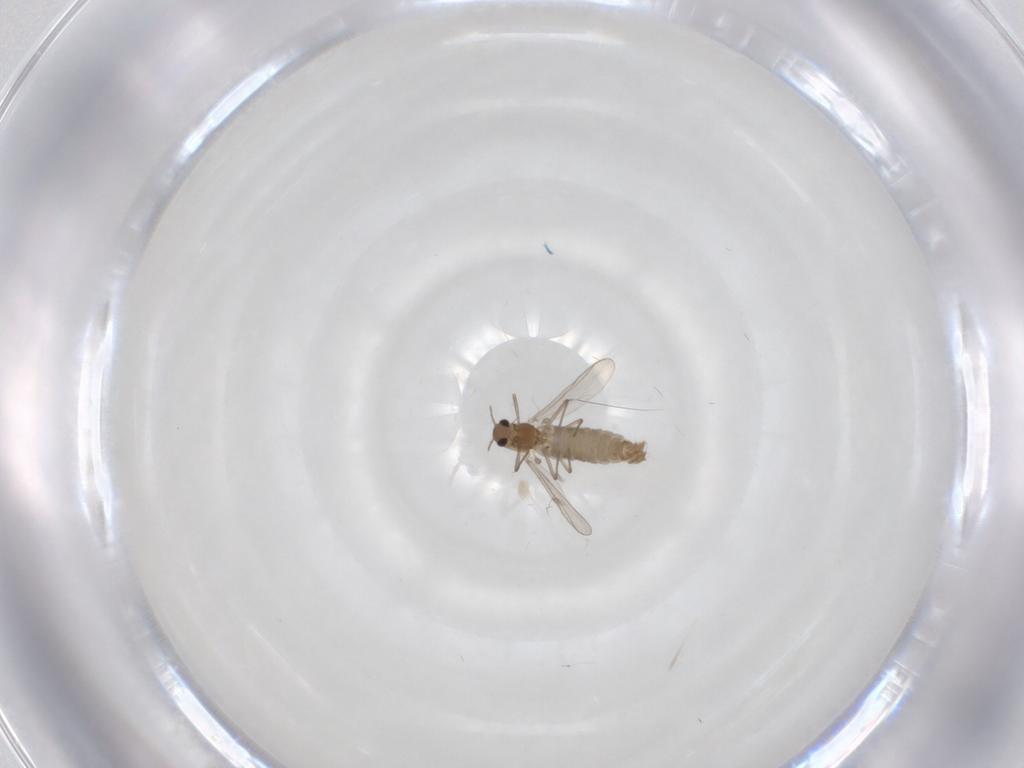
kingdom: Animalia
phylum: Arthropoda
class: Insecta
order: Diptera
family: Chironomidae
